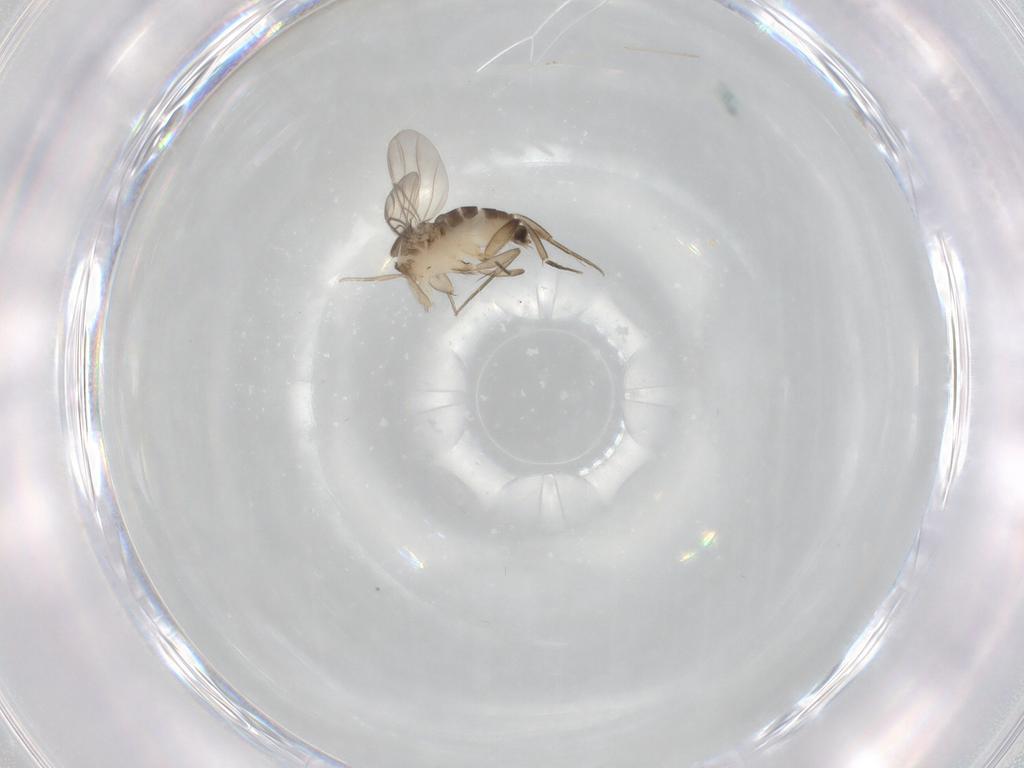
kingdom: Animalia
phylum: Arthropoda
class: Insecta
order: Diptera
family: Phoridae
